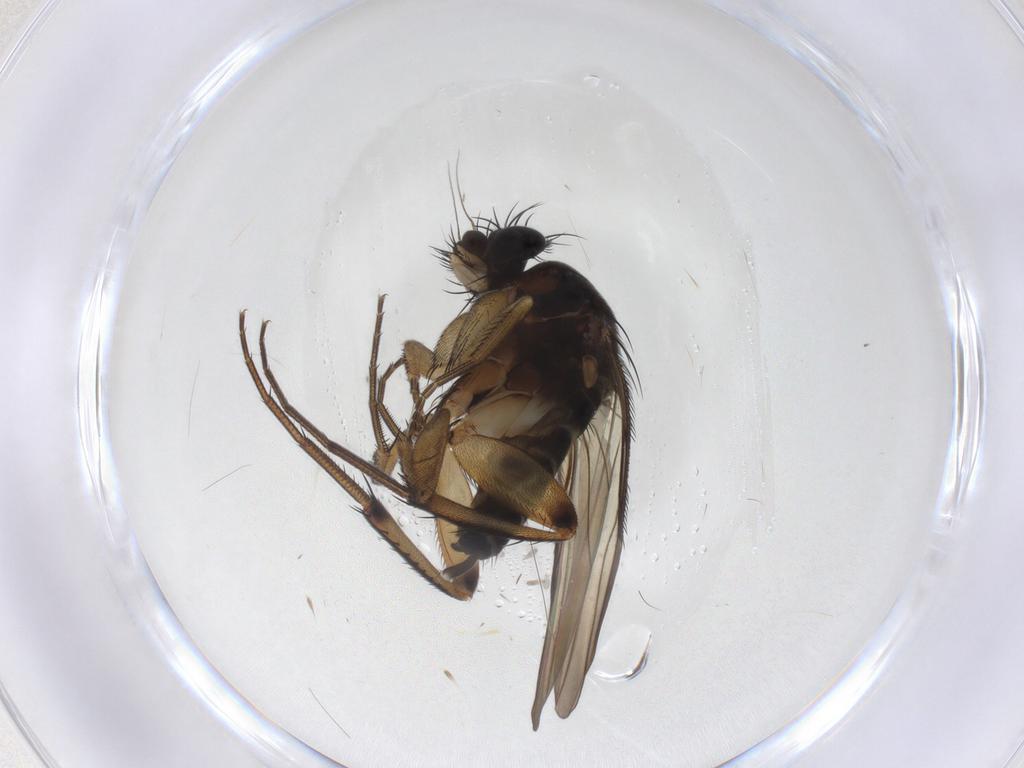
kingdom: Animalia
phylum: Arthropoda
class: Insecta
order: Diptera
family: Phoridae
